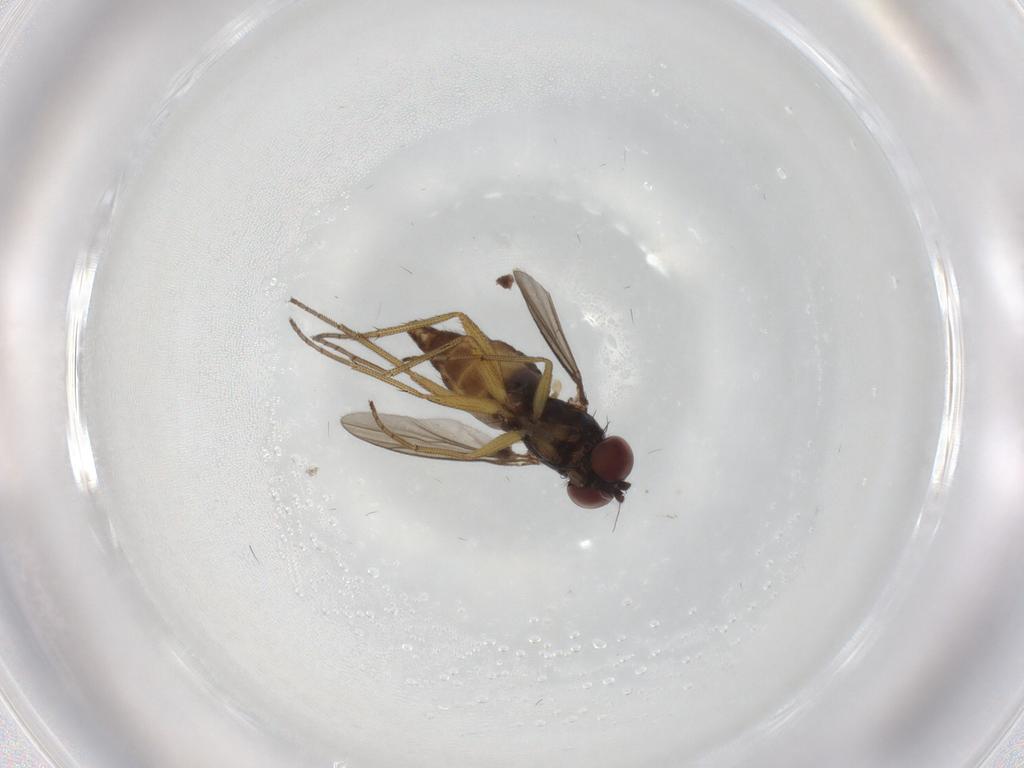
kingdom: Animalia
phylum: Arthropoda
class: Insecta
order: Diptera
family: Dolichopodidae
